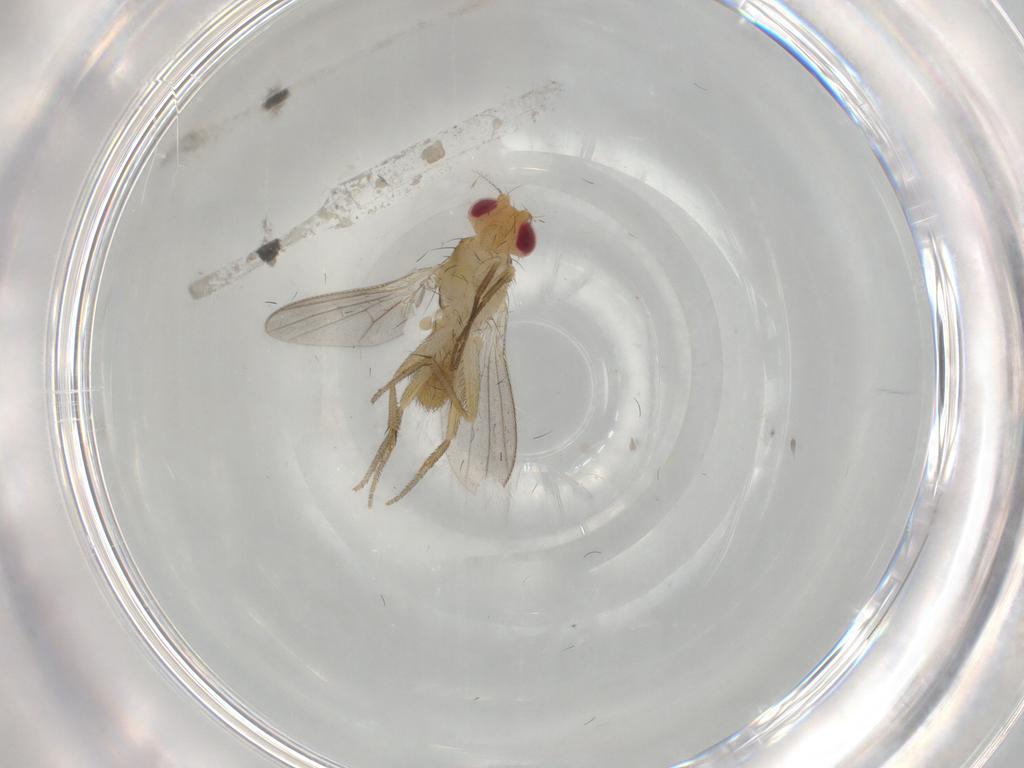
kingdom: Animalia
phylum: Arthropoda
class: Insecta
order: Diptera
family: Clusiidae
